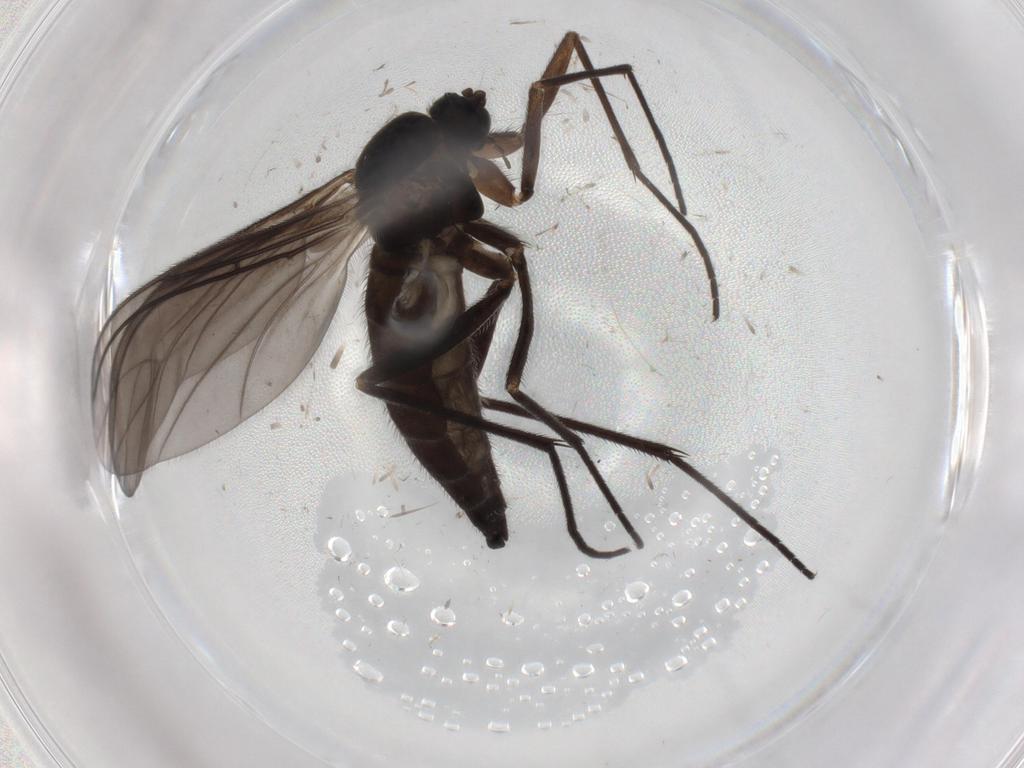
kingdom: Animalia
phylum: Arthropoda
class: Insecta
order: Diptera
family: Sciaridae
